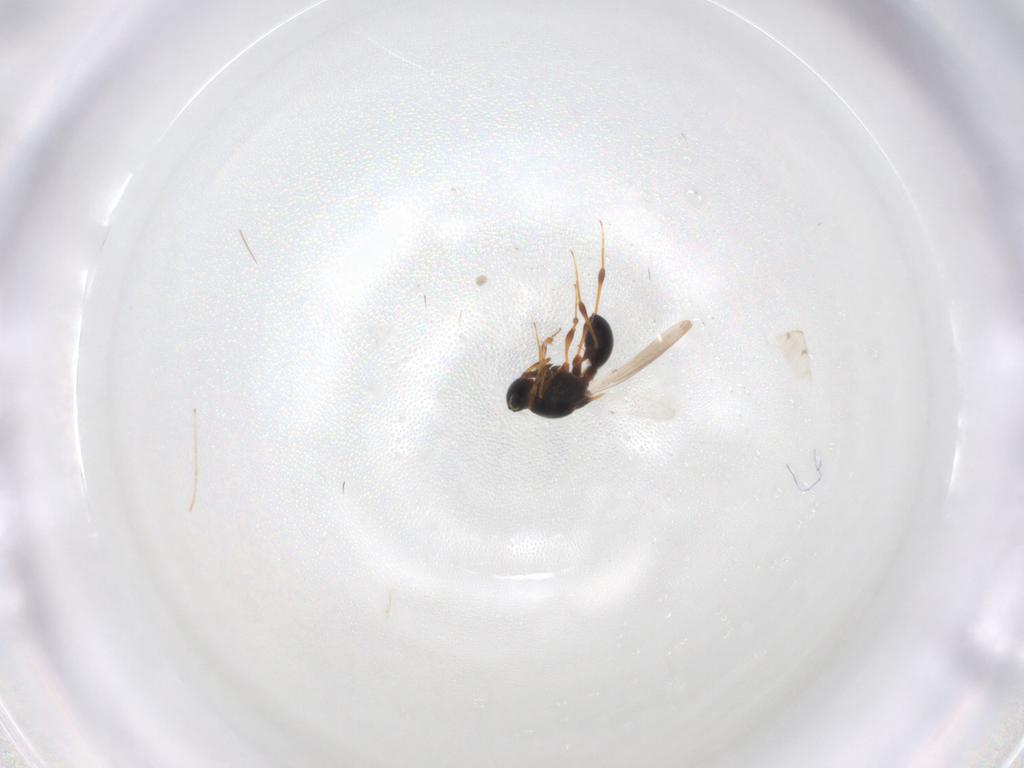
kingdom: Animalia
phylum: Arthropoda
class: Insecta
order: Hymenoptera
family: Platygastridae
